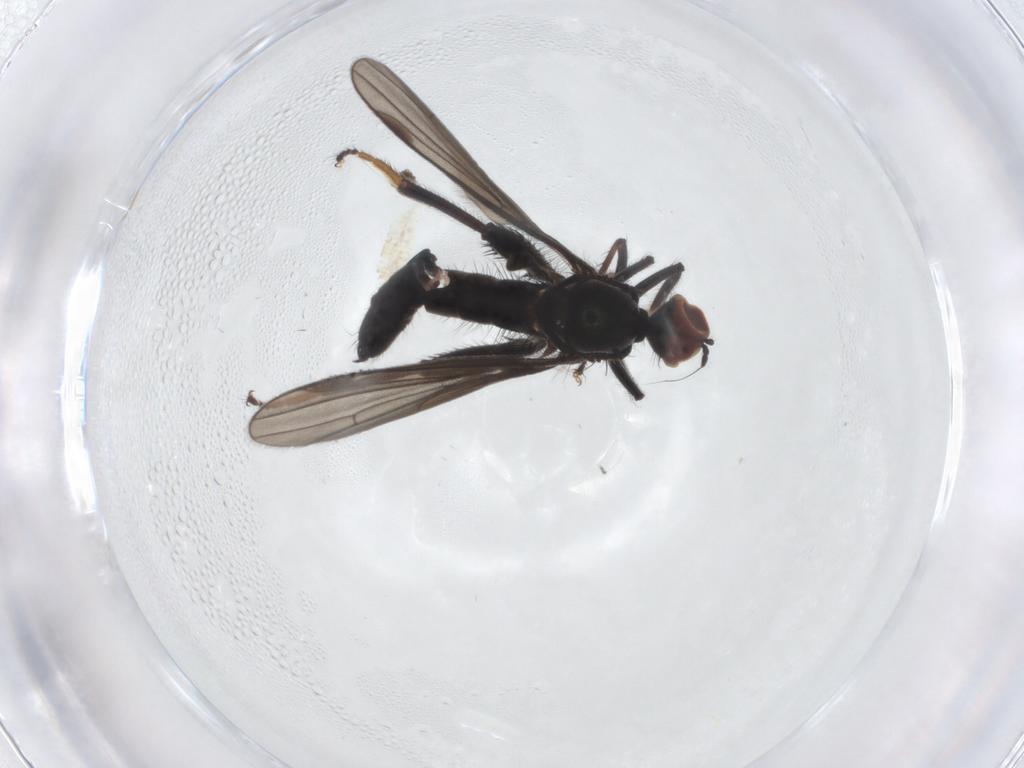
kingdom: Animalia
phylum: Arthropoda
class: Insecta
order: Diptera
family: Hybotidae
